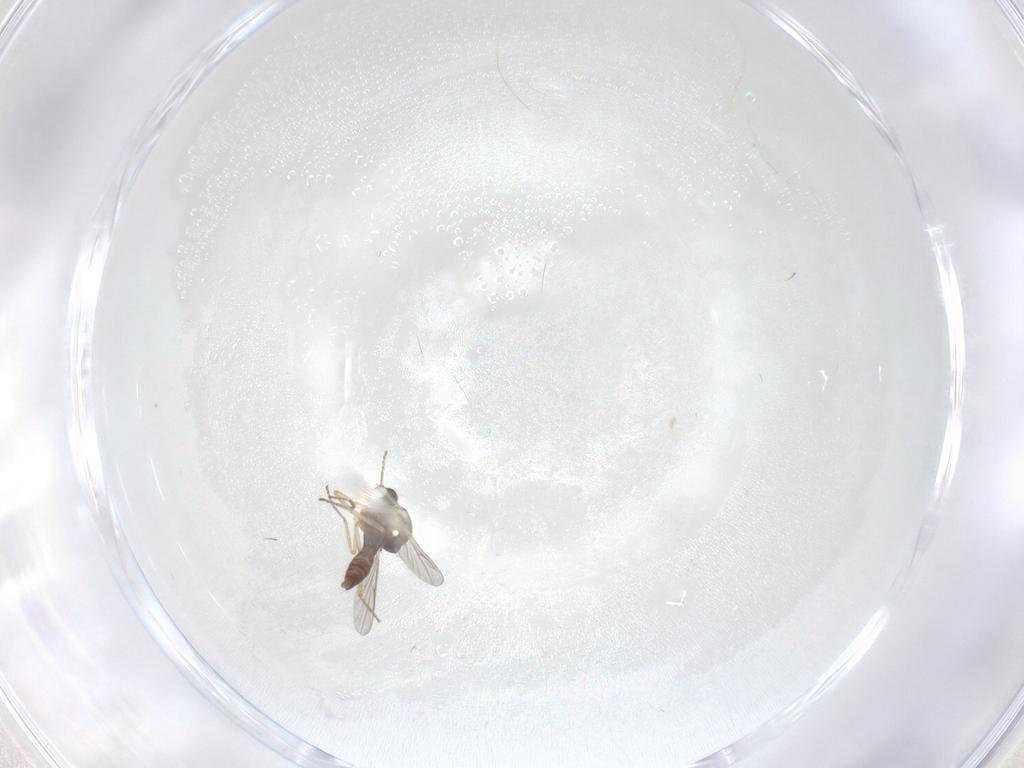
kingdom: Animalia
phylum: Arthropoda
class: Insecta
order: Diptera
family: Ceratopogonidae
